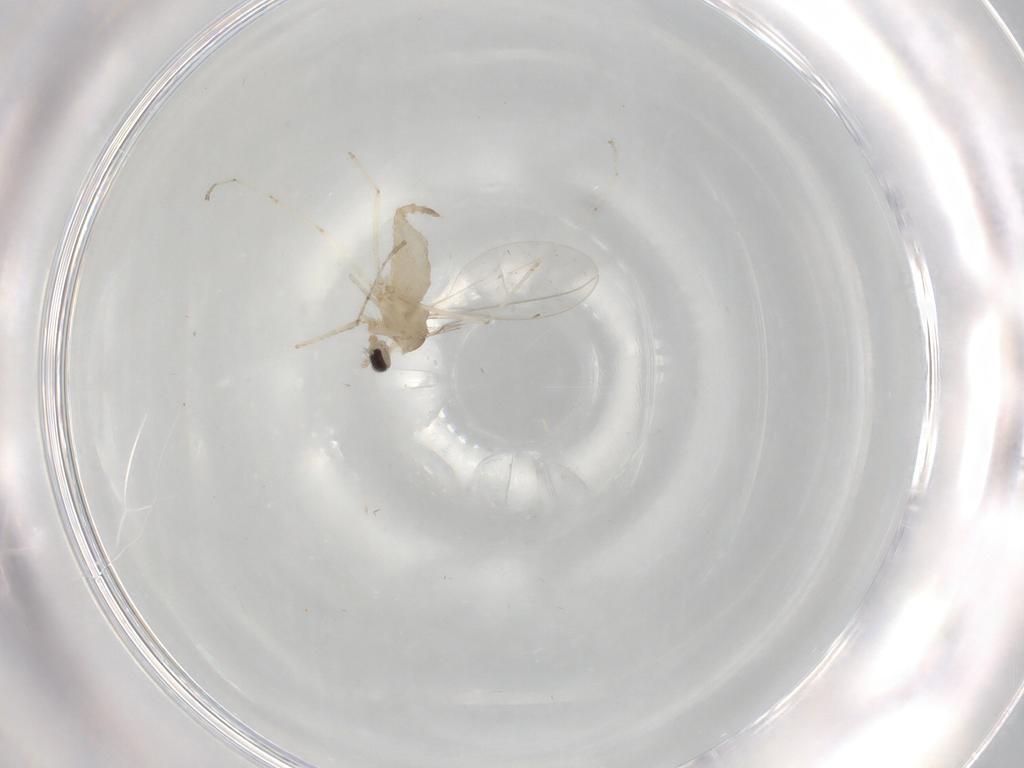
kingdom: Animalia
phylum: Arthropoda
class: Insecta
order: Diptera
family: Cecidomyiidae
